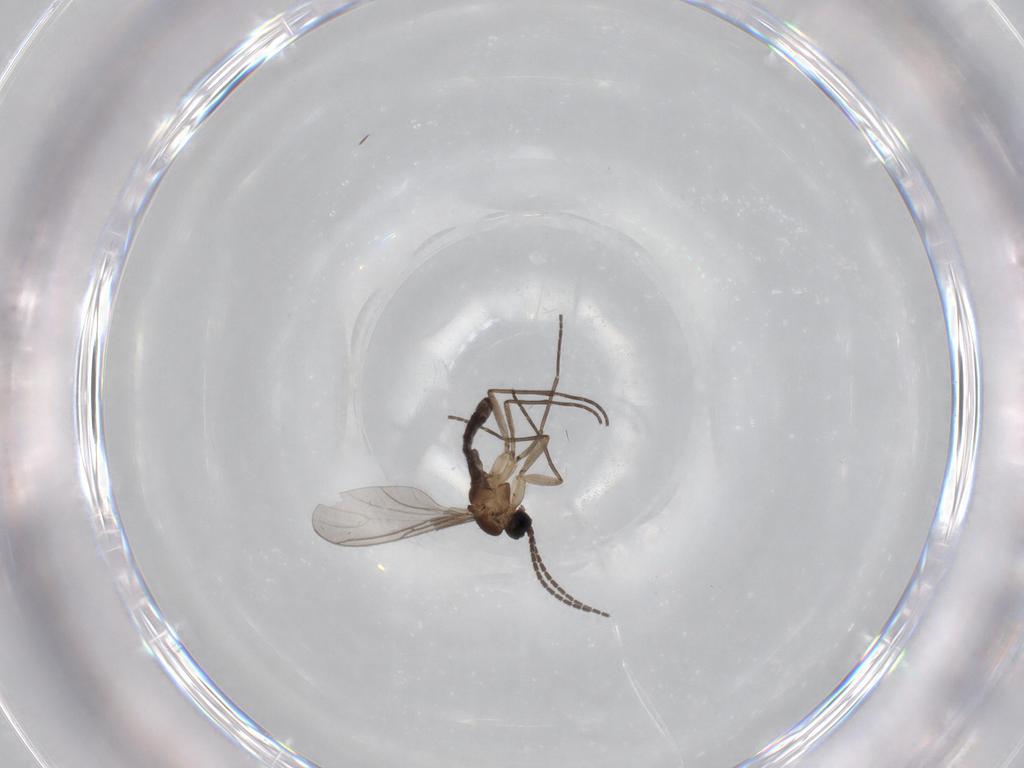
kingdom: Animalia
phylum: Arthropoda
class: Insecta
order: Diptera
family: Sciaridae
